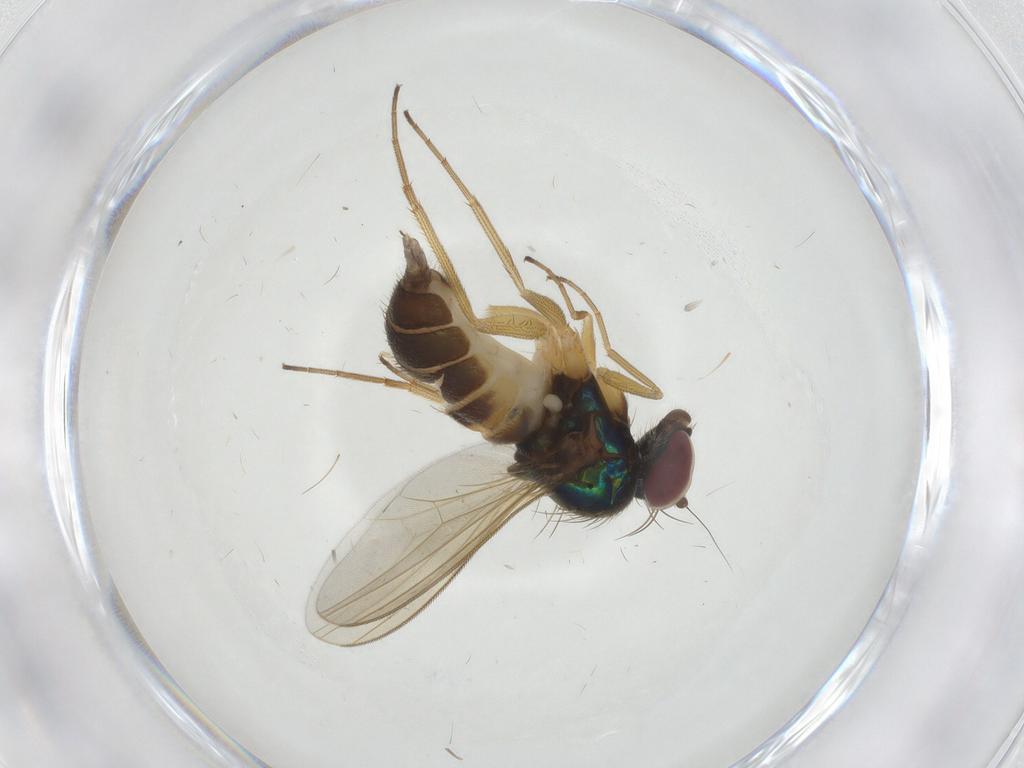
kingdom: Animalia
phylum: Arthropoda
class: Insecta
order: Diptera
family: Dolichopodidae
